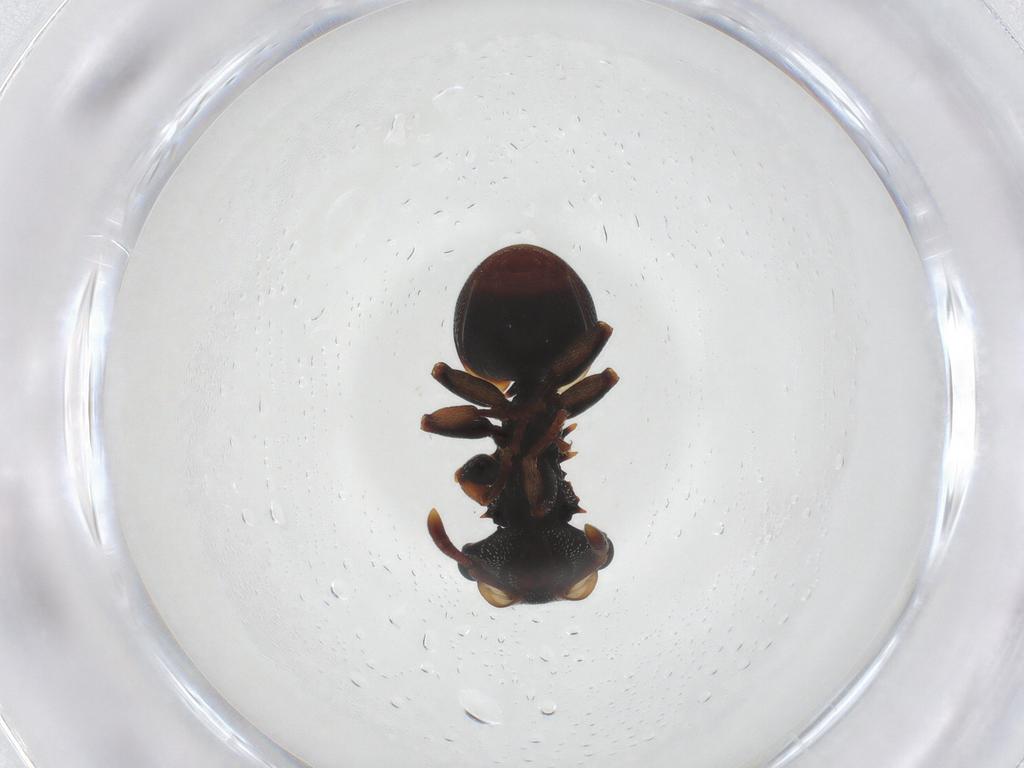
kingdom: Animalia
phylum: Arthropoda
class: Insecta
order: Hymenoptera
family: Formicidae
